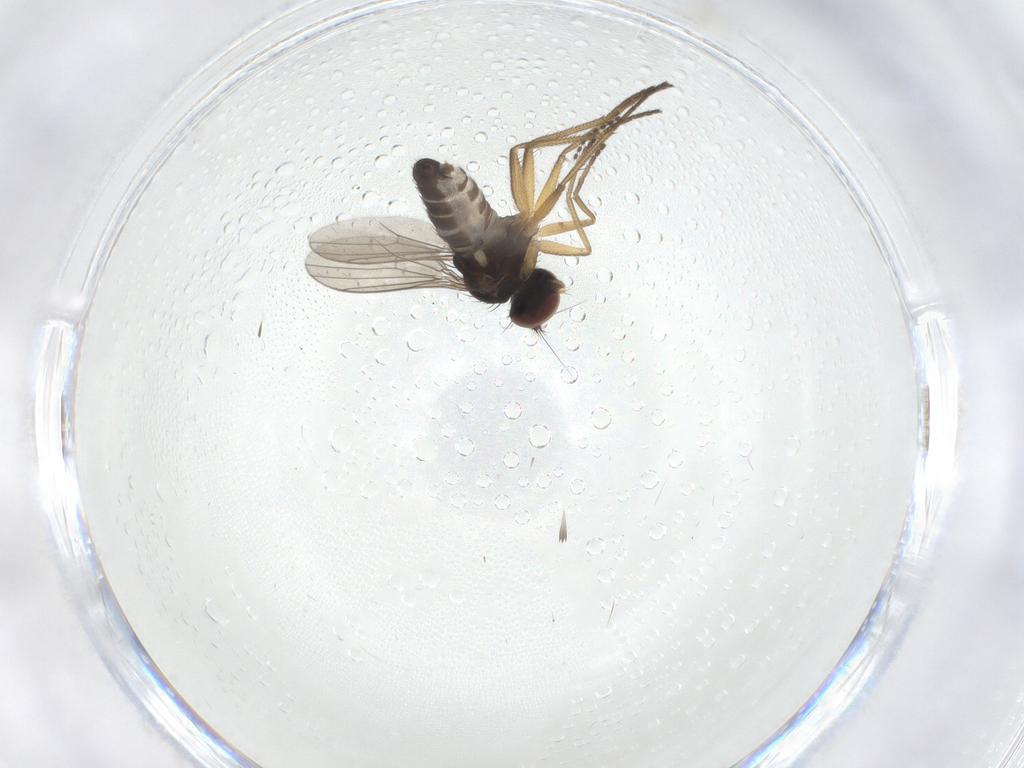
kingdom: Animalia
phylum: Arthropoda
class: Insecta
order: Diptera
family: Dolichopodidae
